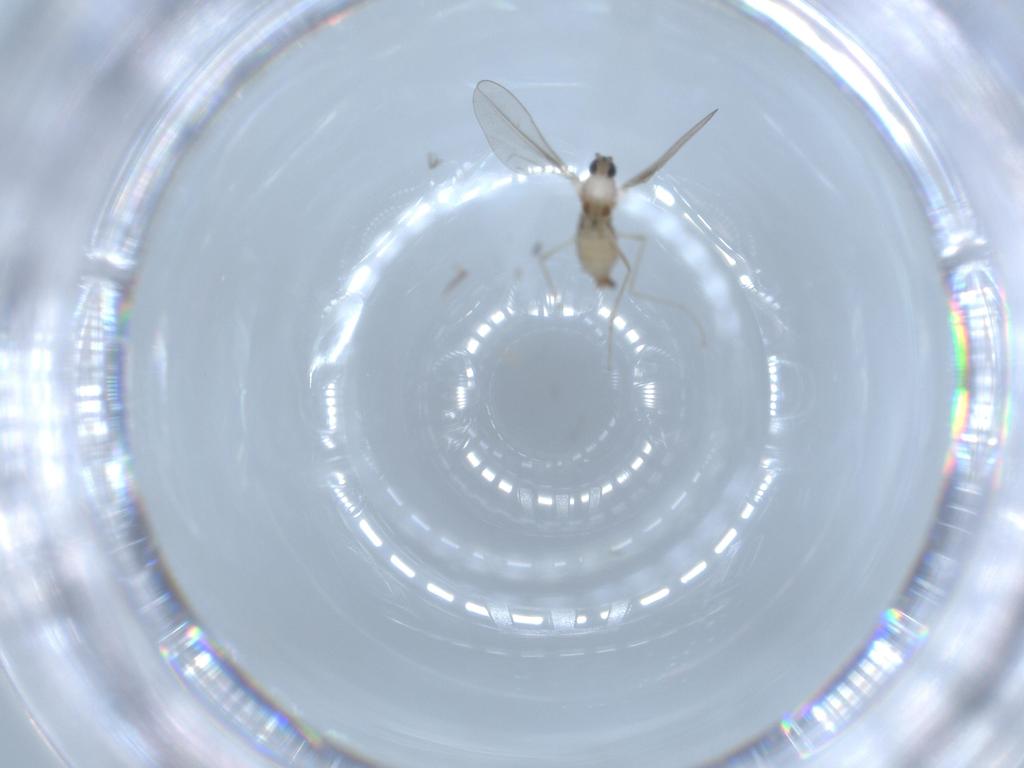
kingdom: Animalia
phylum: Arthropoda
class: Insecta
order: Diptera
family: Cecidomyiidae
